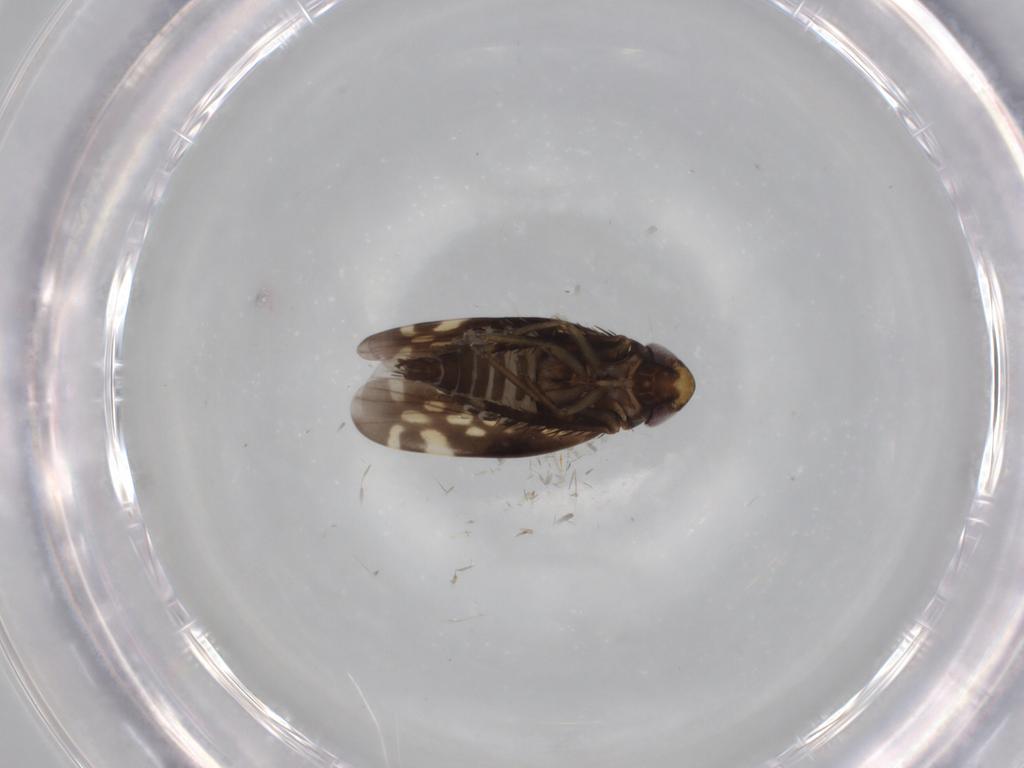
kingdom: Animalia
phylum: Arthropoda
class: Insecta
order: Hemiptera
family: Cicadellidae
